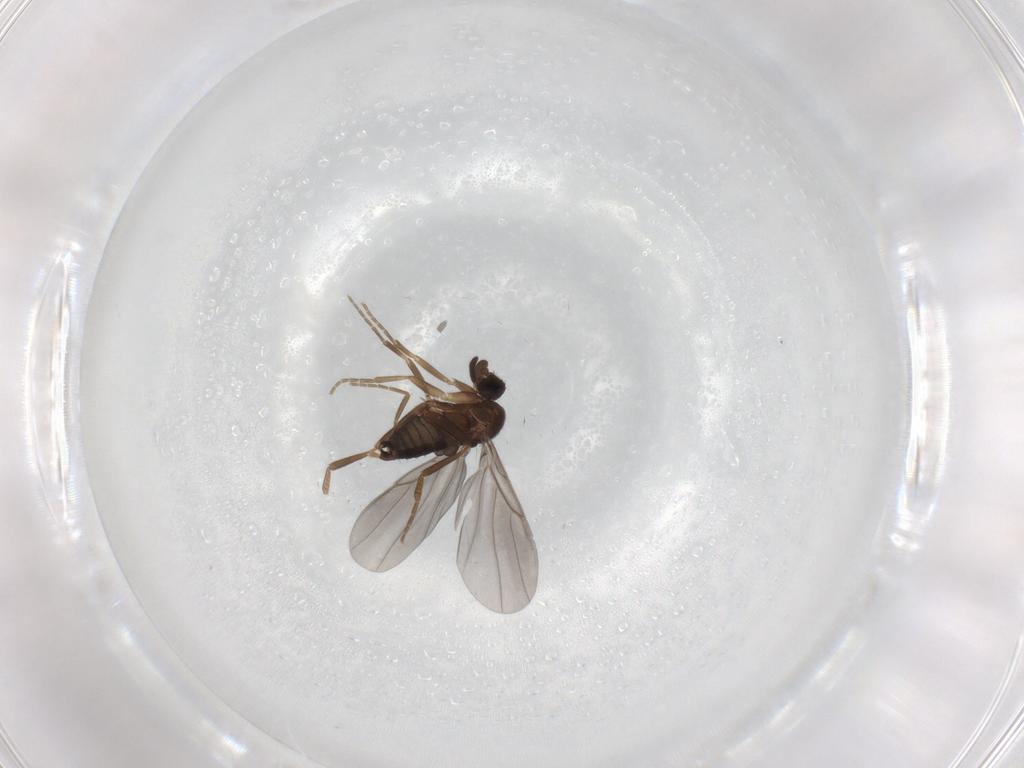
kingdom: Animalia
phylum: Arthropoda
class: Insecta
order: Diptera
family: Phoridae
